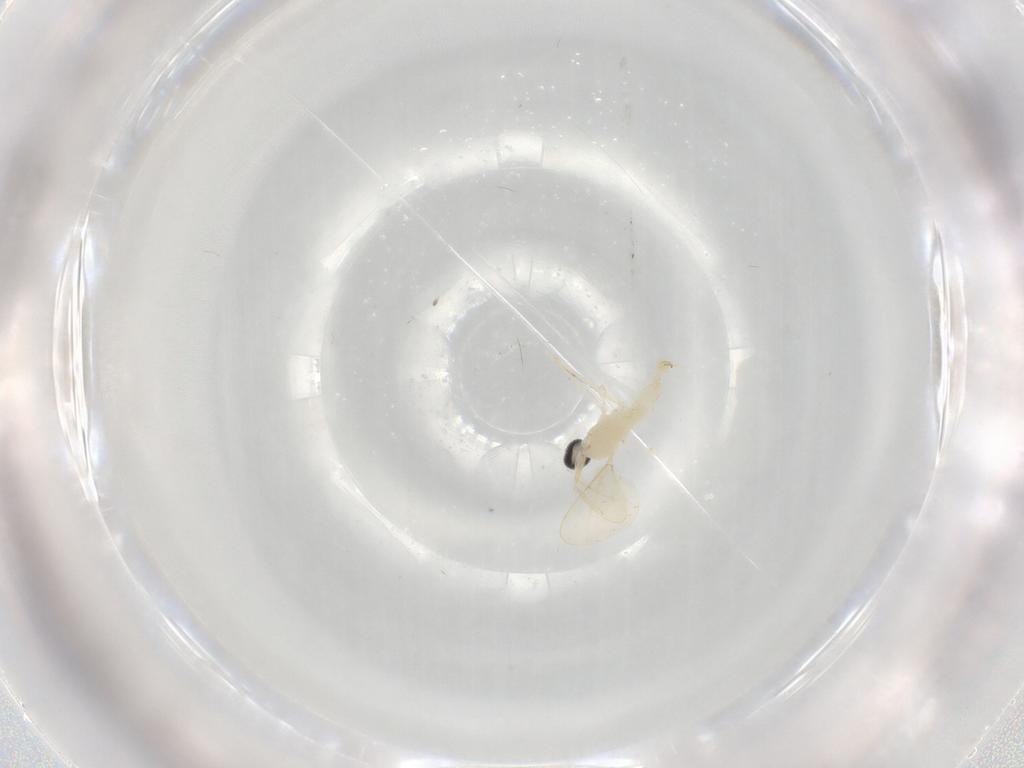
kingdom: Animalia
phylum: Arthropoda
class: Insecta
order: Diptera
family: Cecidomyiidae
